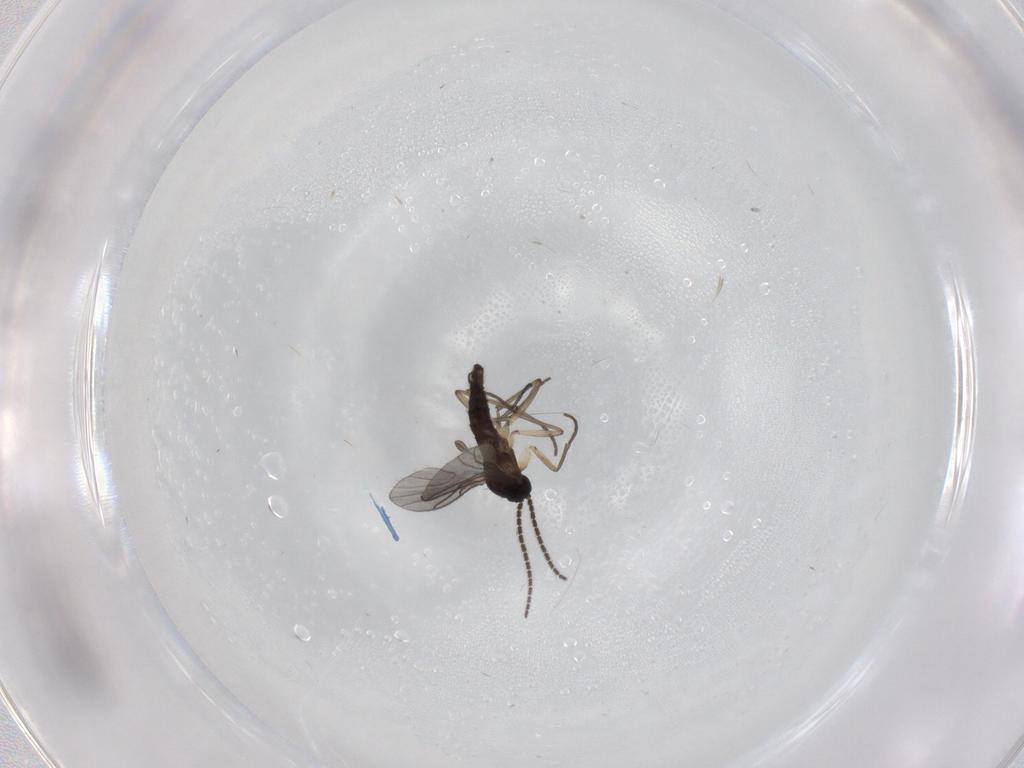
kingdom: Animalia
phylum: Arthropoda
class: Insecta
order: Diptera
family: Sciaridae
